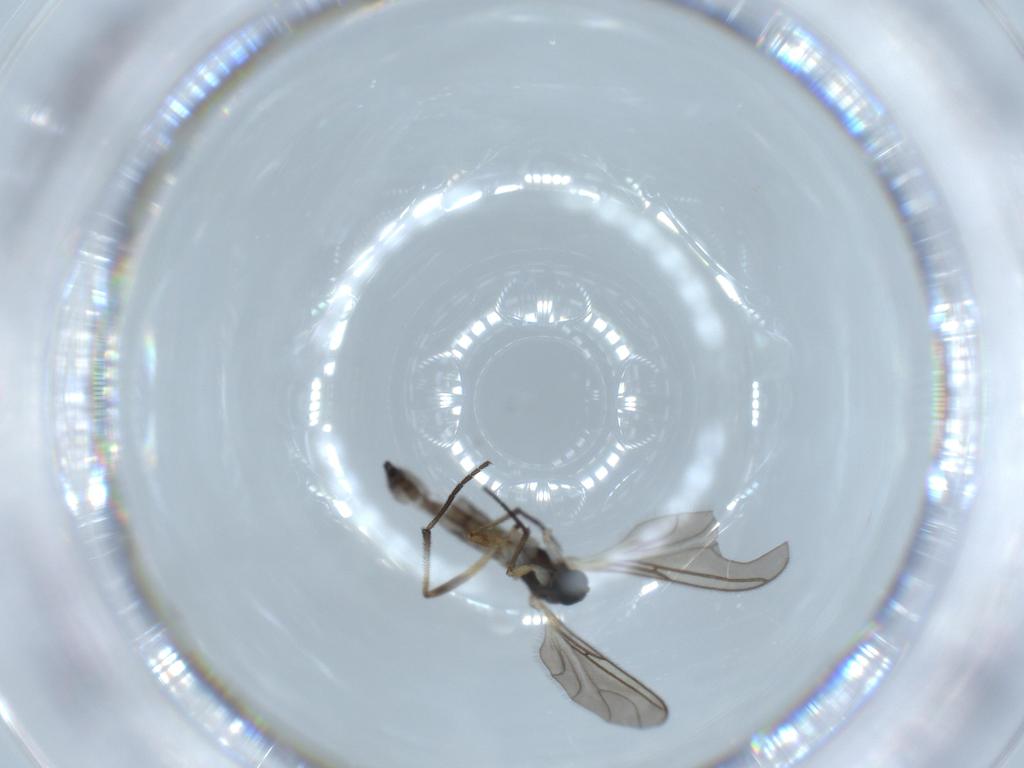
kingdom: Animalia
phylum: Arthropoda
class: Insecta
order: Diptera
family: Sciaridae
